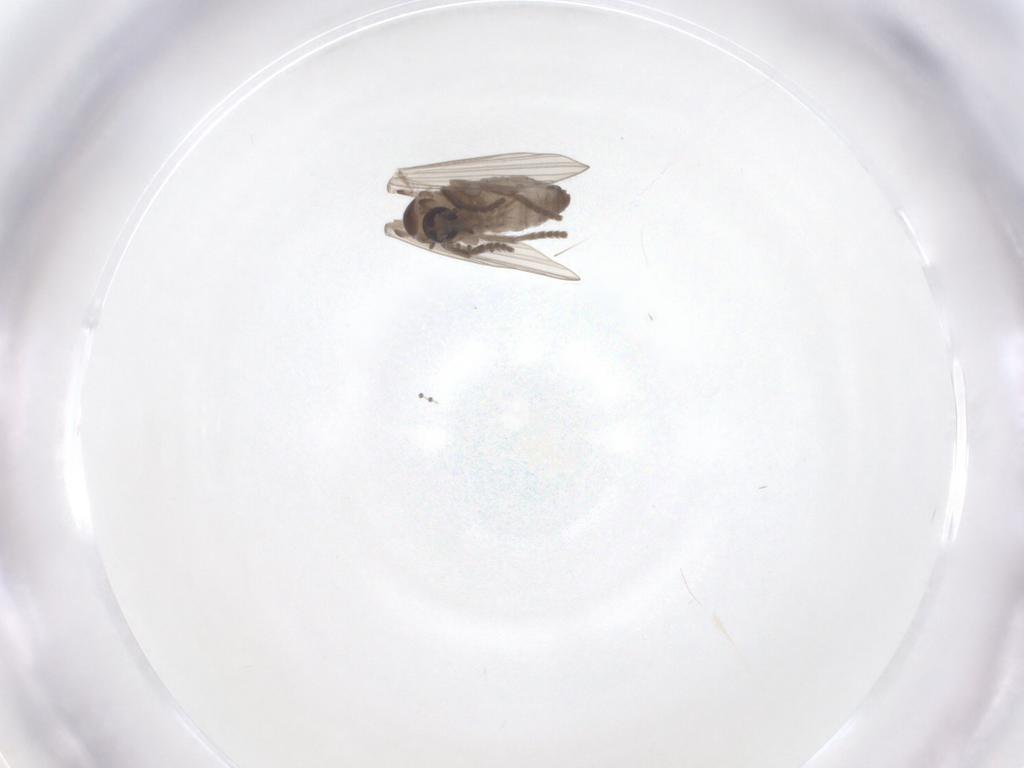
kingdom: Animalia
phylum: Arthropoda
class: Insecta
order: Diptera
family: Psychodidae
